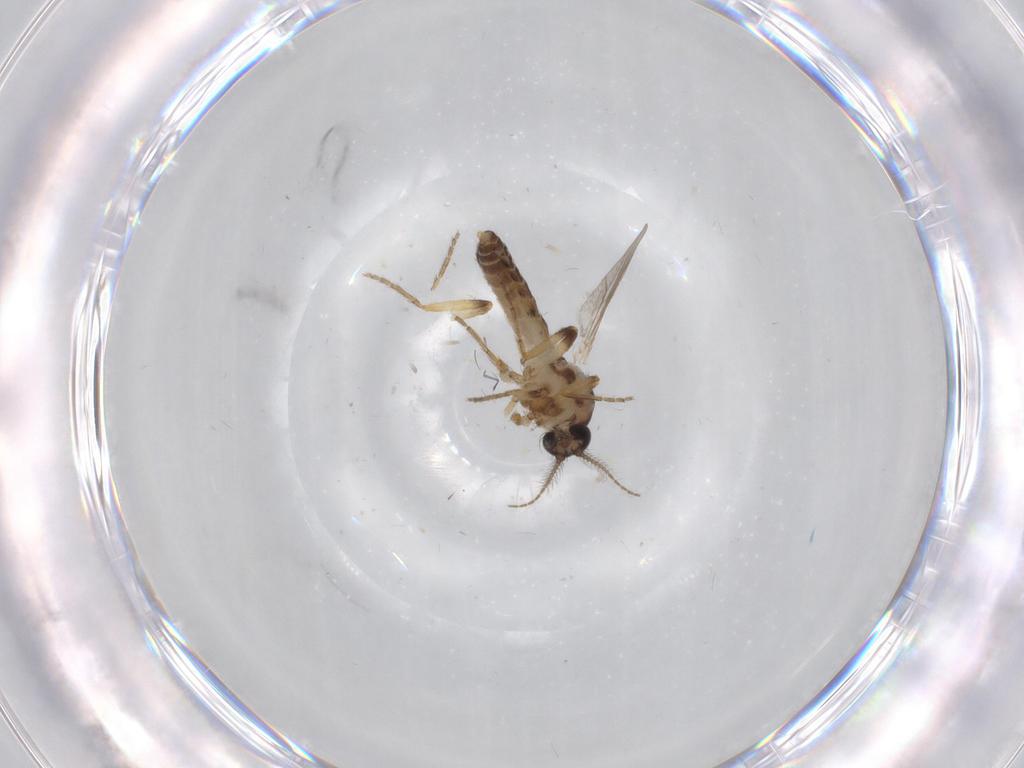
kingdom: Animalia
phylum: Arthropoda
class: Insecta
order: Diptera
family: Ceratopogonidae
